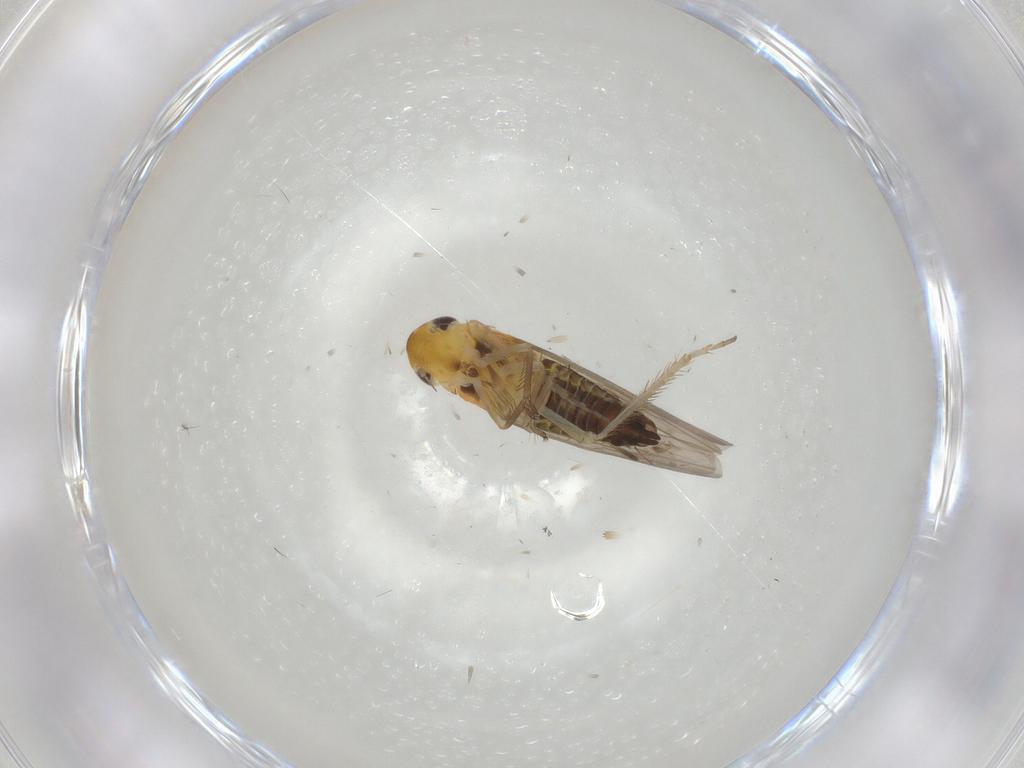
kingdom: Animalia
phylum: Arthropoda
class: Insecta
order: Hemiptera
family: Cicadellidae
